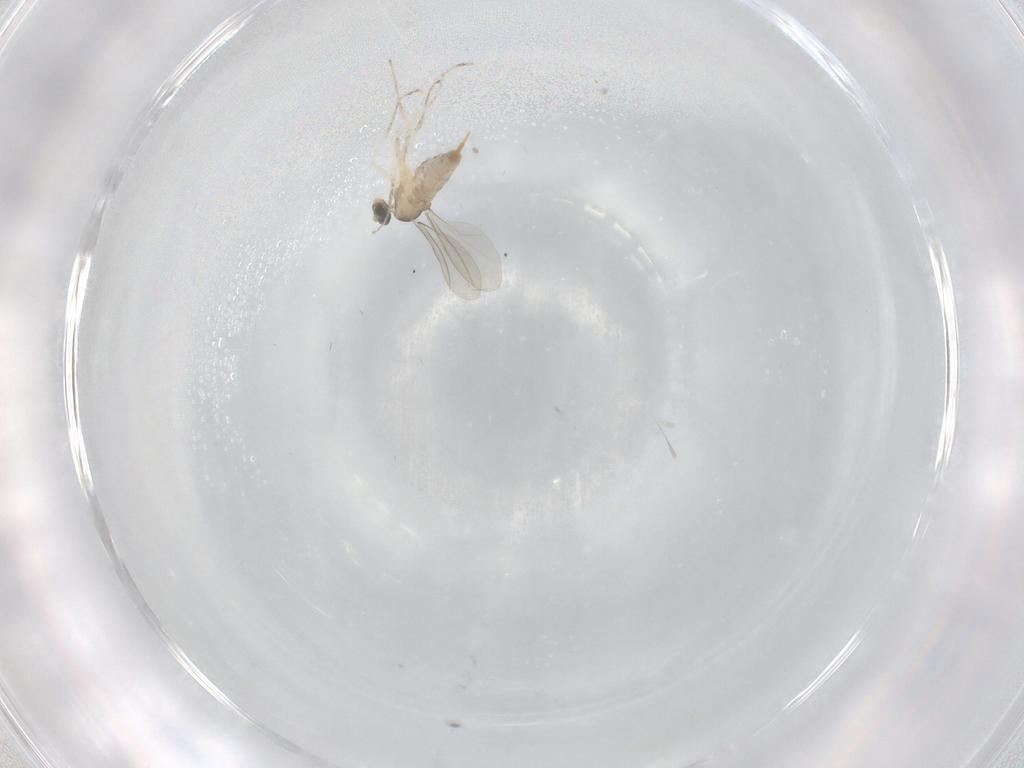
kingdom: Animalia
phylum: Arthropoda
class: Insecta
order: Diptera
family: Cecidomyiidae
